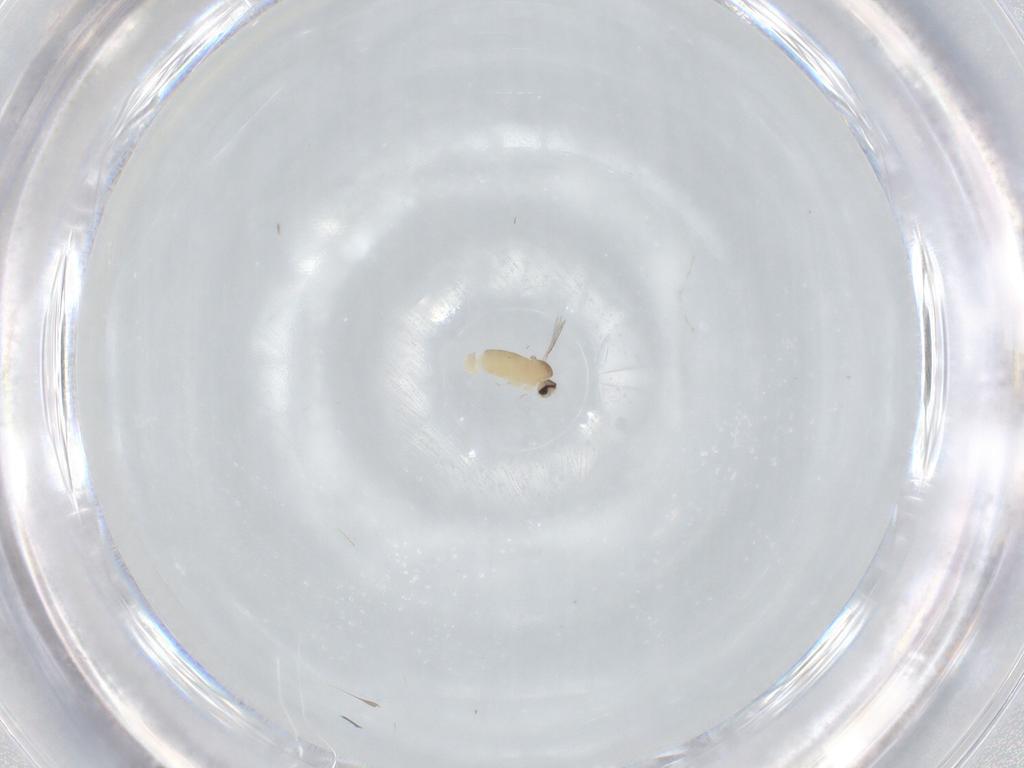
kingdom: Animalia
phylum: Arthropoda
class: Insecta
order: Diptera
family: Cecidomyiidae
